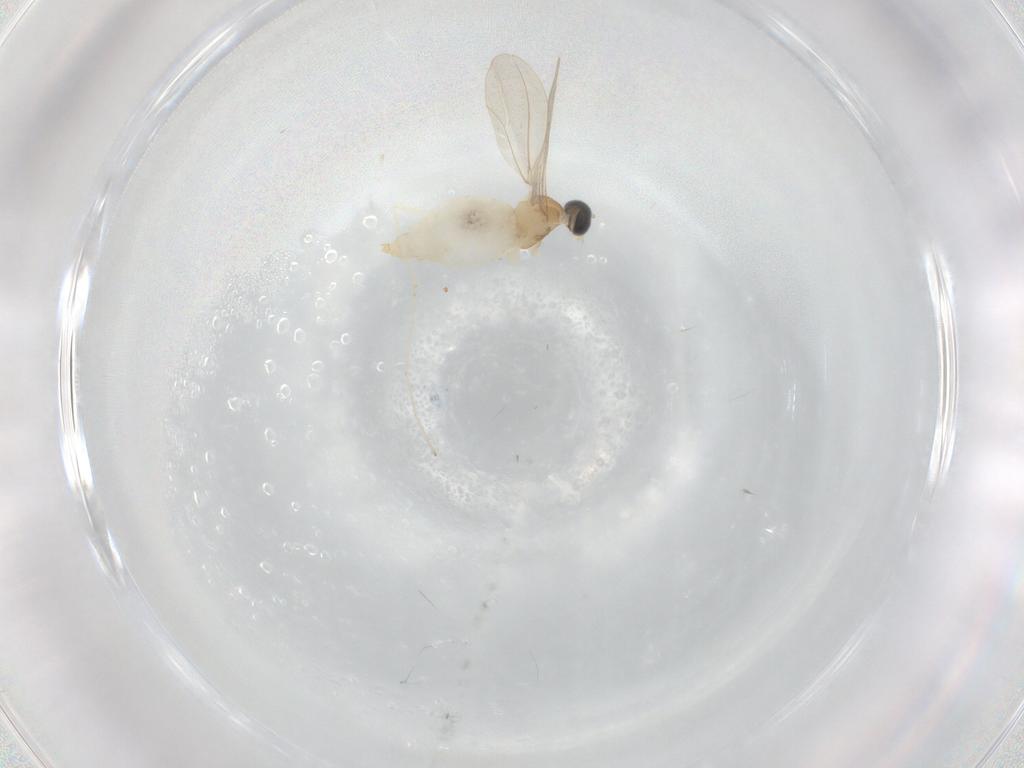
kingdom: Animalia
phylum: Arthropoda
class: Insecta
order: Diptera
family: Cecidomyiidae
